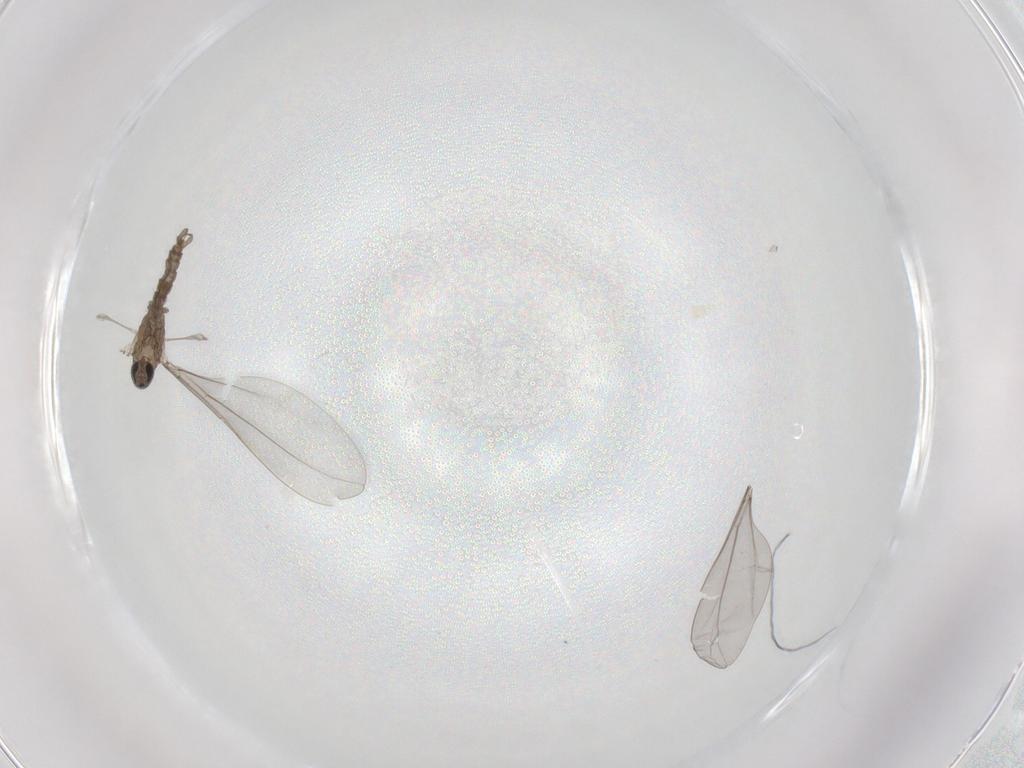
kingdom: Animalia
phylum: Arthropoda
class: Insecta
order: Diptera
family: Cecidomyiidae
